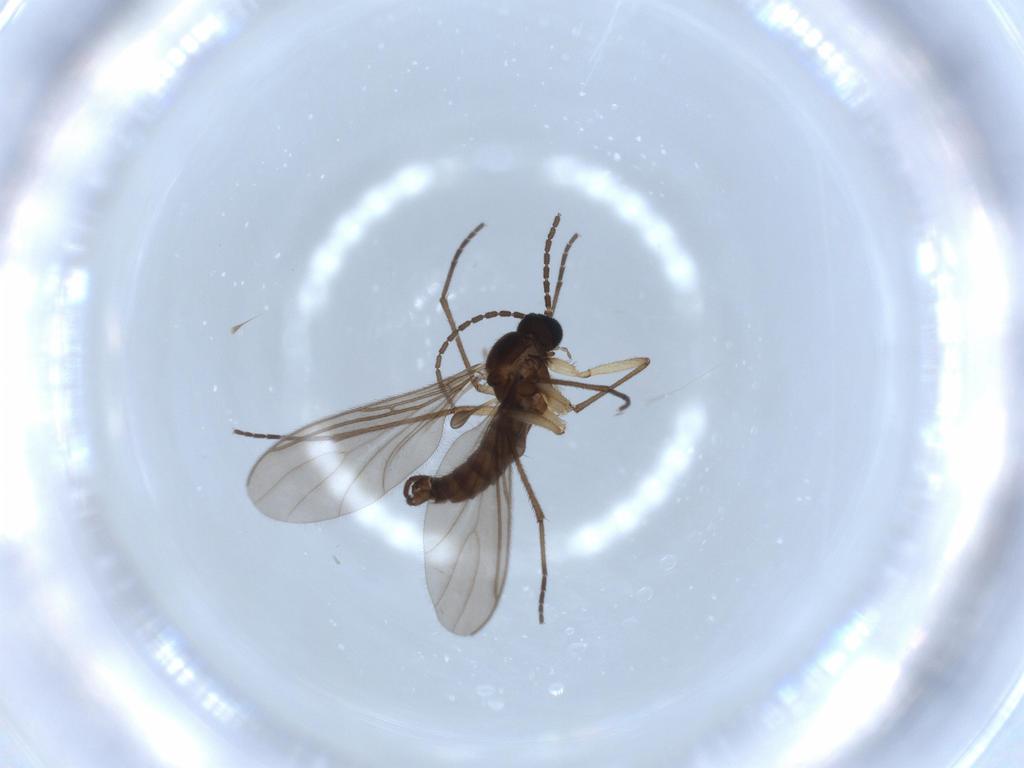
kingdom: Animalia
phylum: Arthropoda
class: Insecta
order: Diptera
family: Sciaridae
